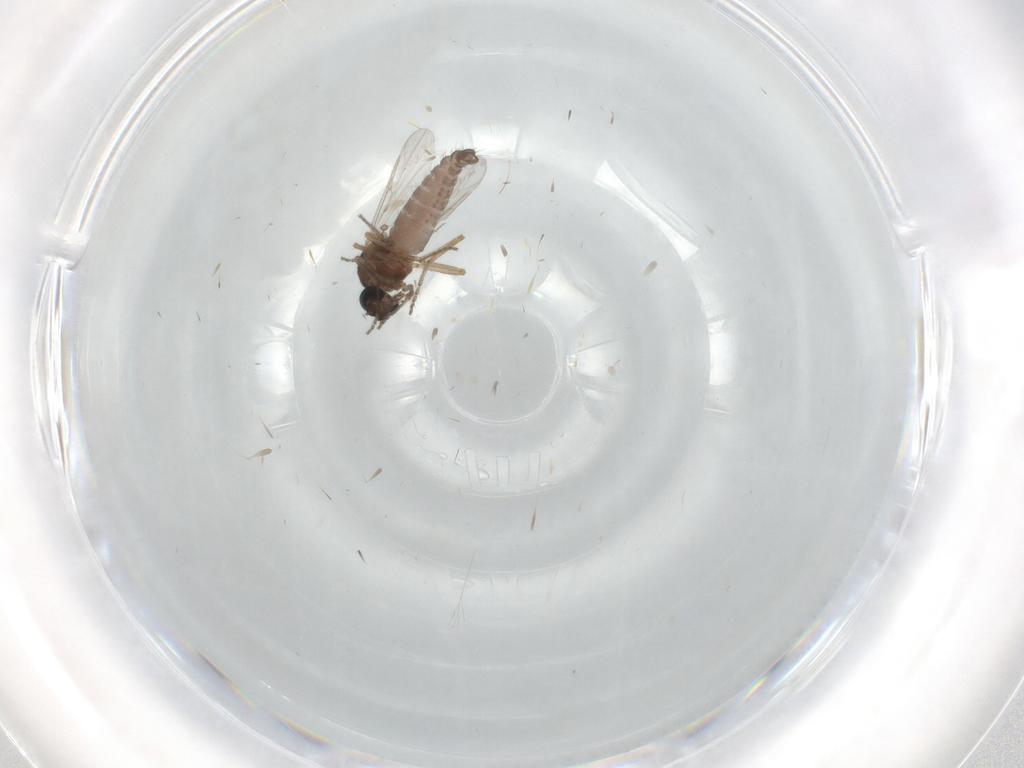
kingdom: Animalia
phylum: Arthropoda
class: Insecta
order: Diptera
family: Ceratopogonidae
